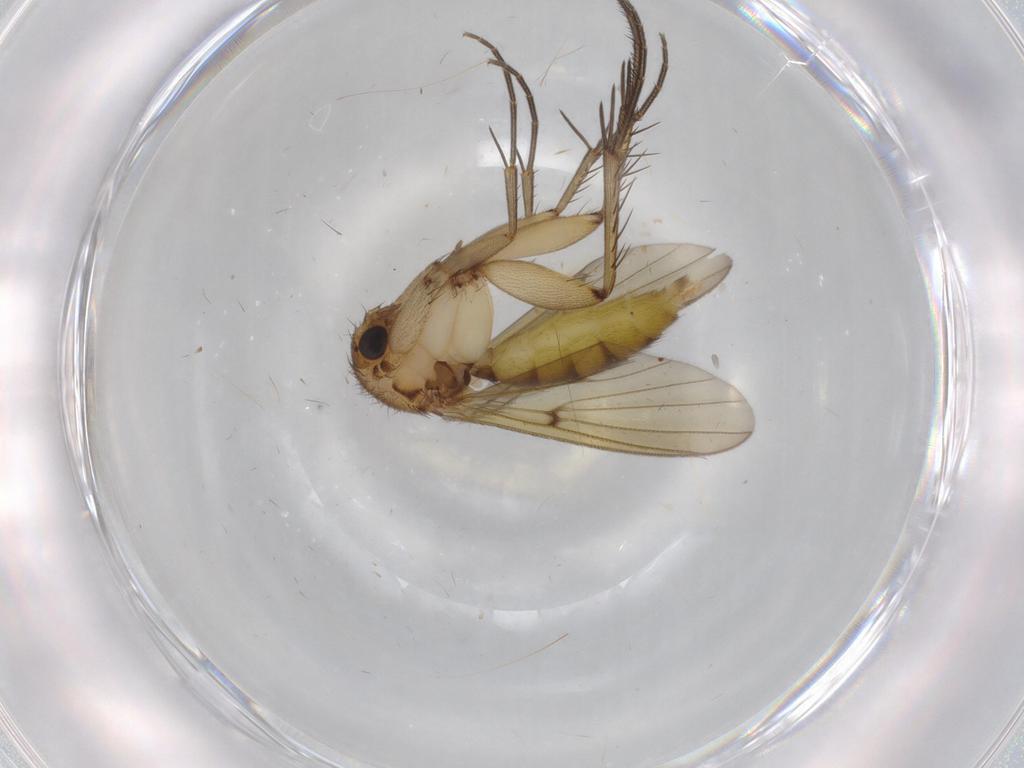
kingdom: Animalia
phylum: Arthropoda
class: Insecta
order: Diptera
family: Mycetophilidae
